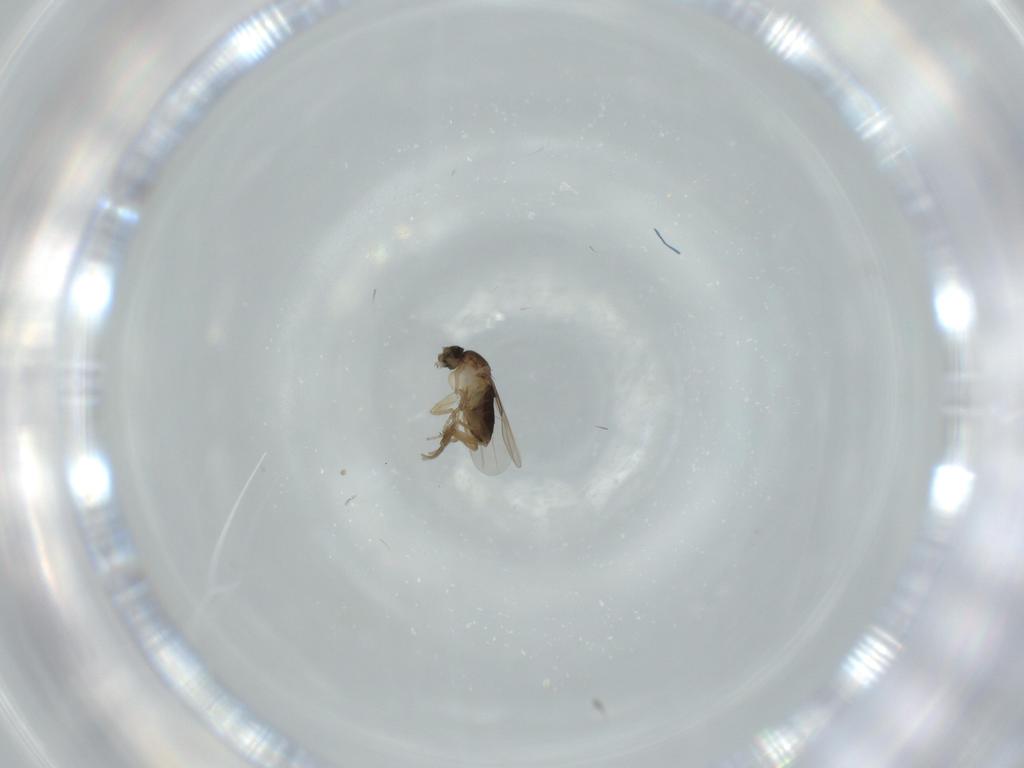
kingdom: Animalia
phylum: Arthropoda
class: Insecta
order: Diptera
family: Phoridae
